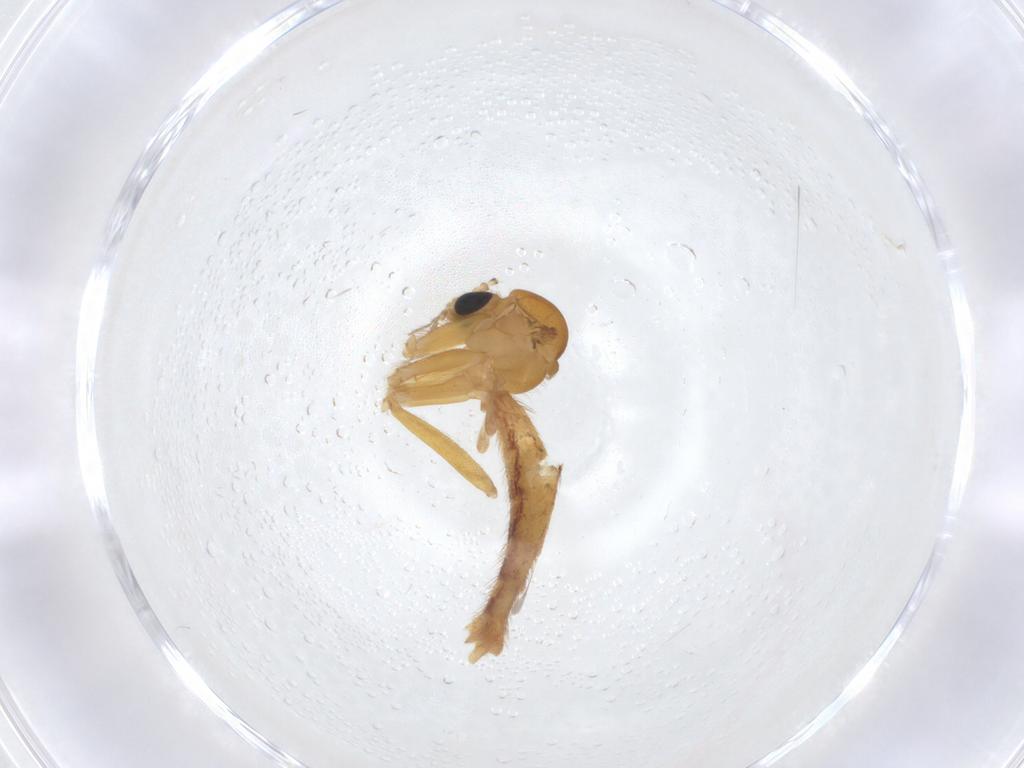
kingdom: Animalia
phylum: Arthropoda
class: Insecta
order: Diptera
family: Mycetophilidae
